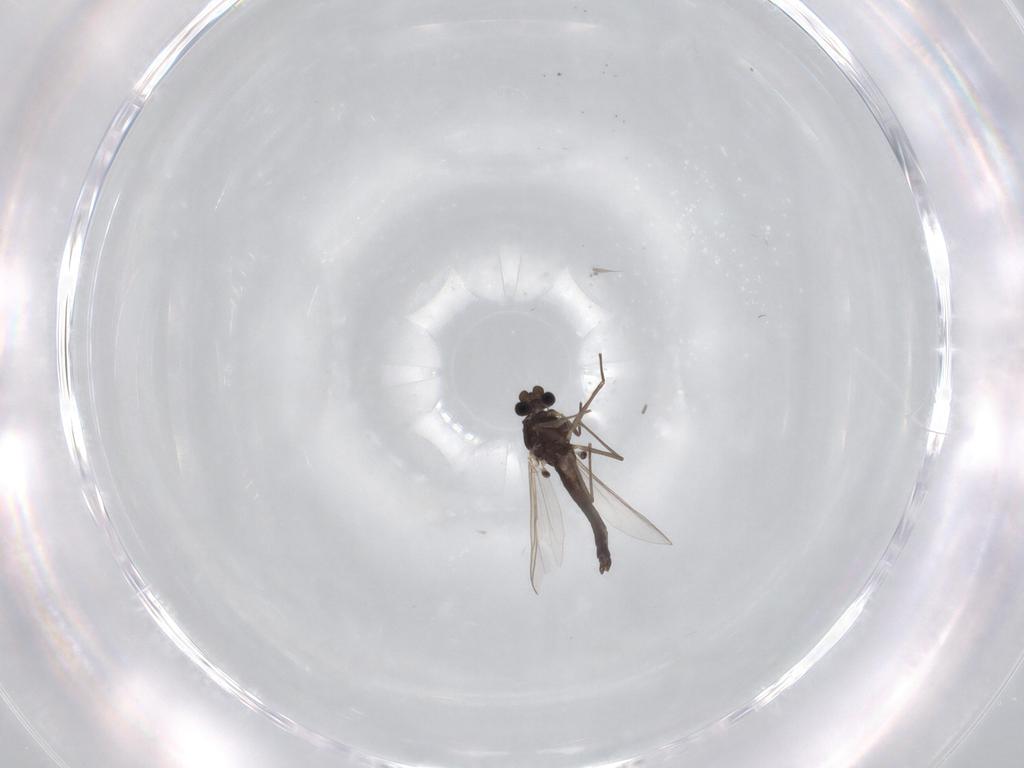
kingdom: Animalia
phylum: Arthropoda
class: Insecta
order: Diptera
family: Chironomidae
